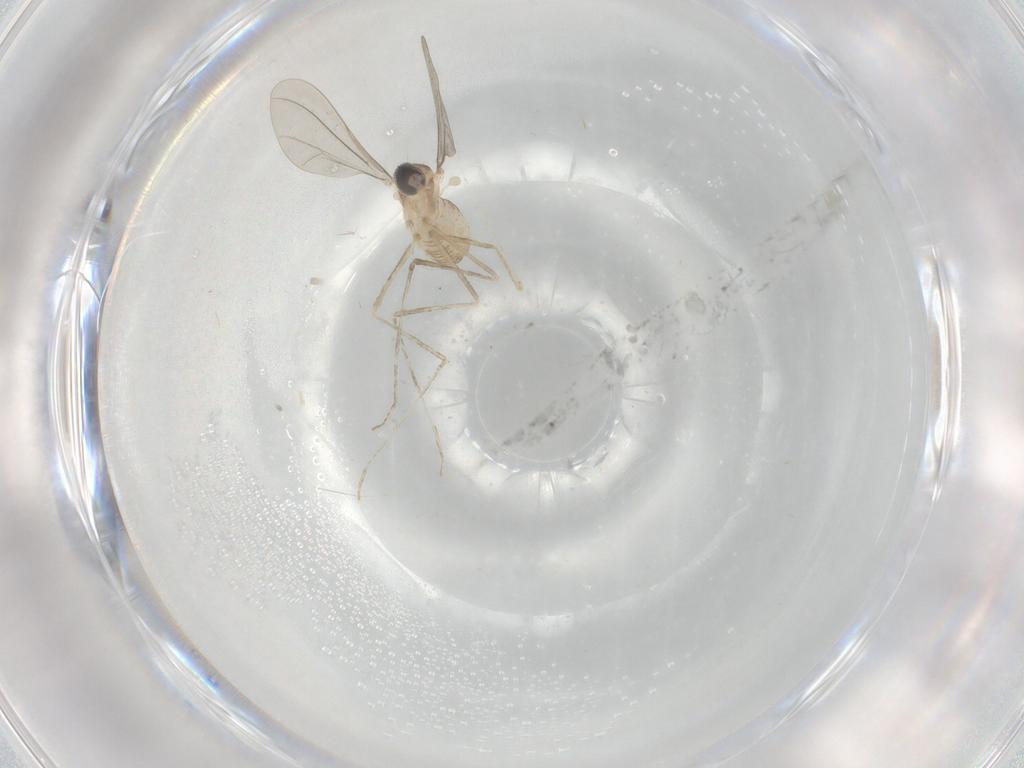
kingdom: Animalia
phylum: Arthropoda
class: Insecta
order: Diptera
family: Cecidomyiidae
